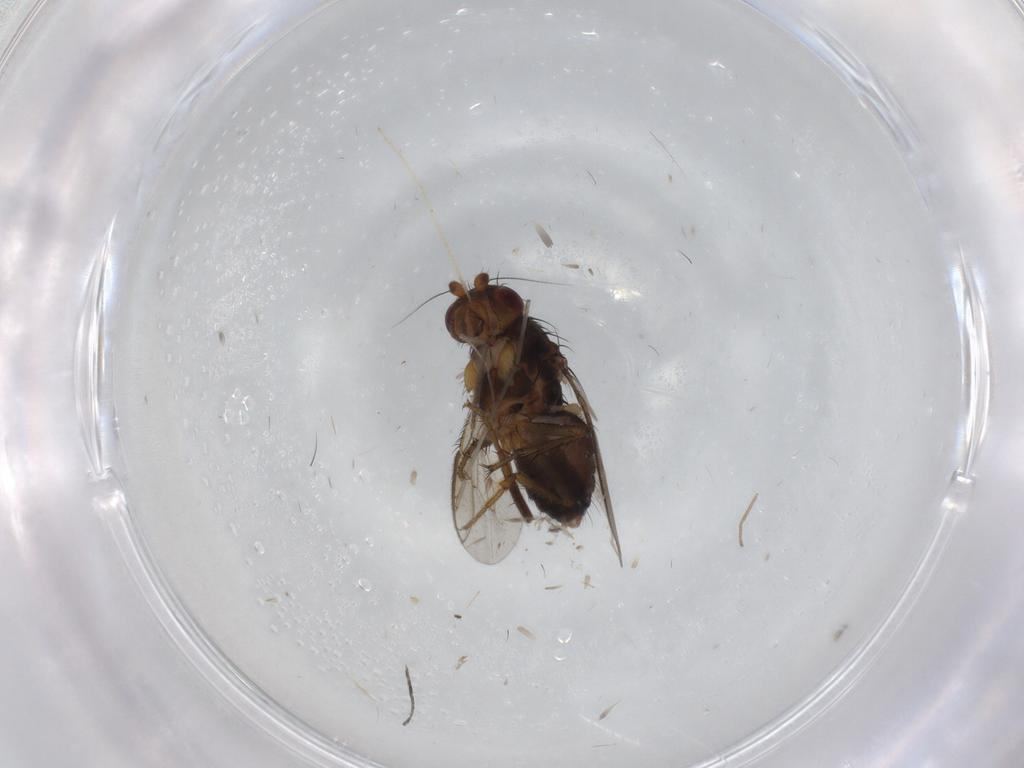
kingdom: Animalia
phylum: Arthropoda
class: Insecta
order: Diptera
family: Cecidomyiidae
